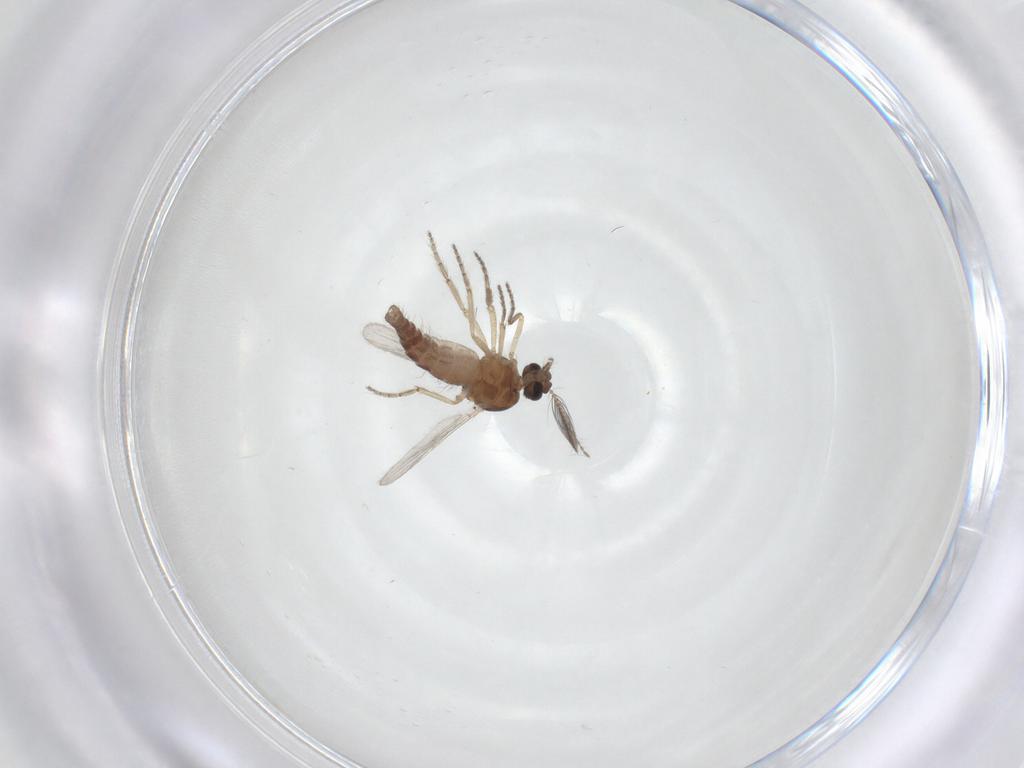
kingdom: Animalia
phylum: Arthropoda
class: Insecta
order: Diptera
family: Ceratopogonidae
